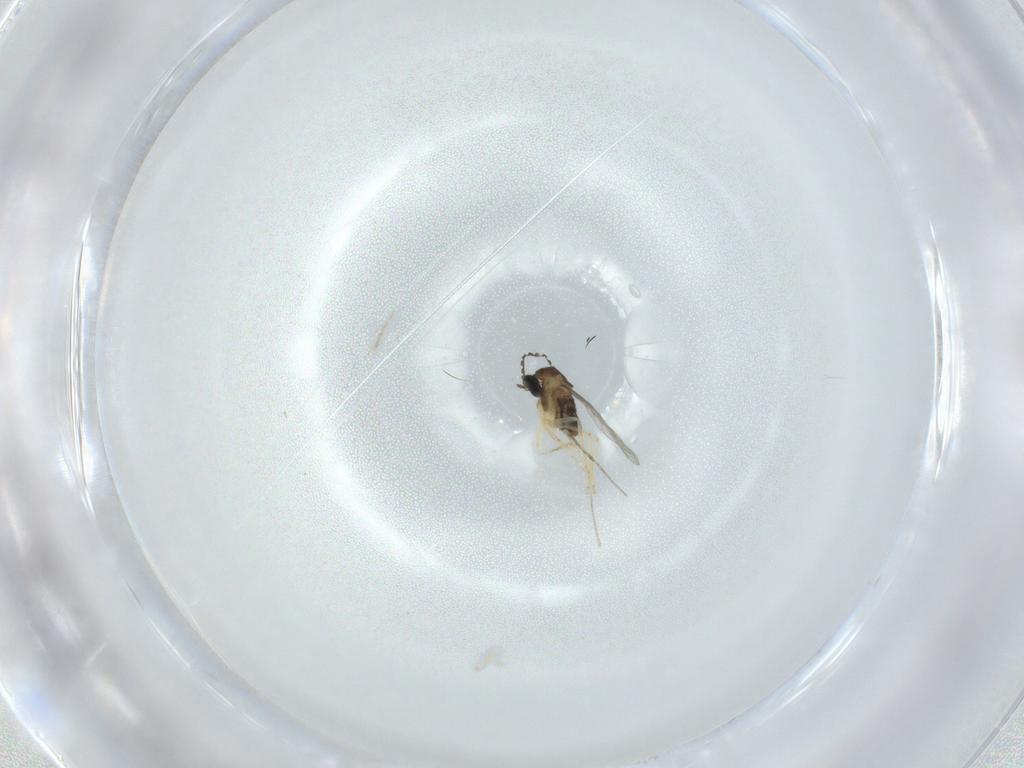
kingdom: Animalia
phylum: Arthropoda
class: Insecta
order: Diptera
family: Cecidomyiidae
